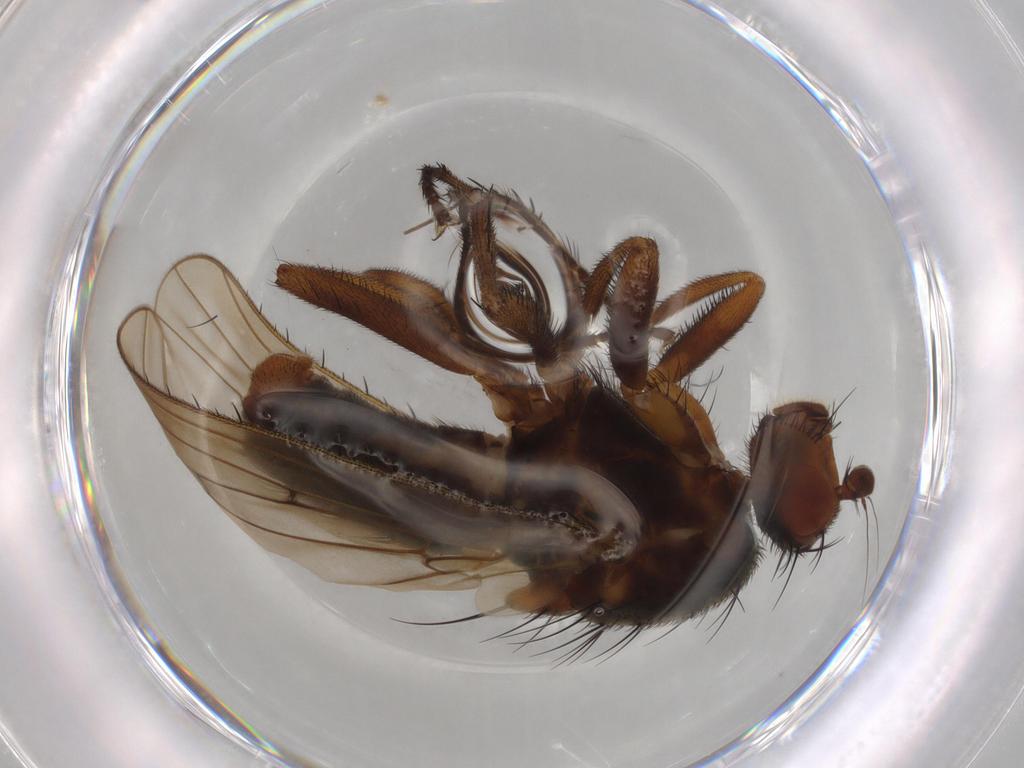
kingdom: Animalia
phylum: Arthropoda
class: Insecta
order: Diptera
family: Heleomyzidae
